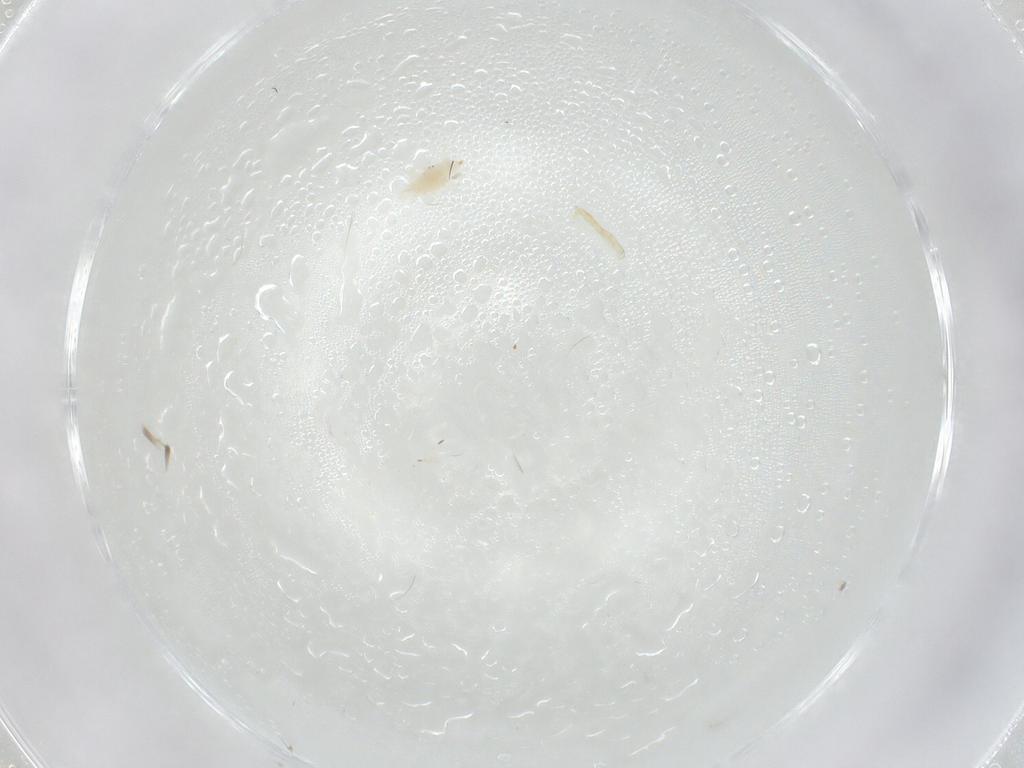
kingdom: Animalia
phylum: Arthropoda
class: Arachnida
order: Trombidiformes
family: Bdellidae
